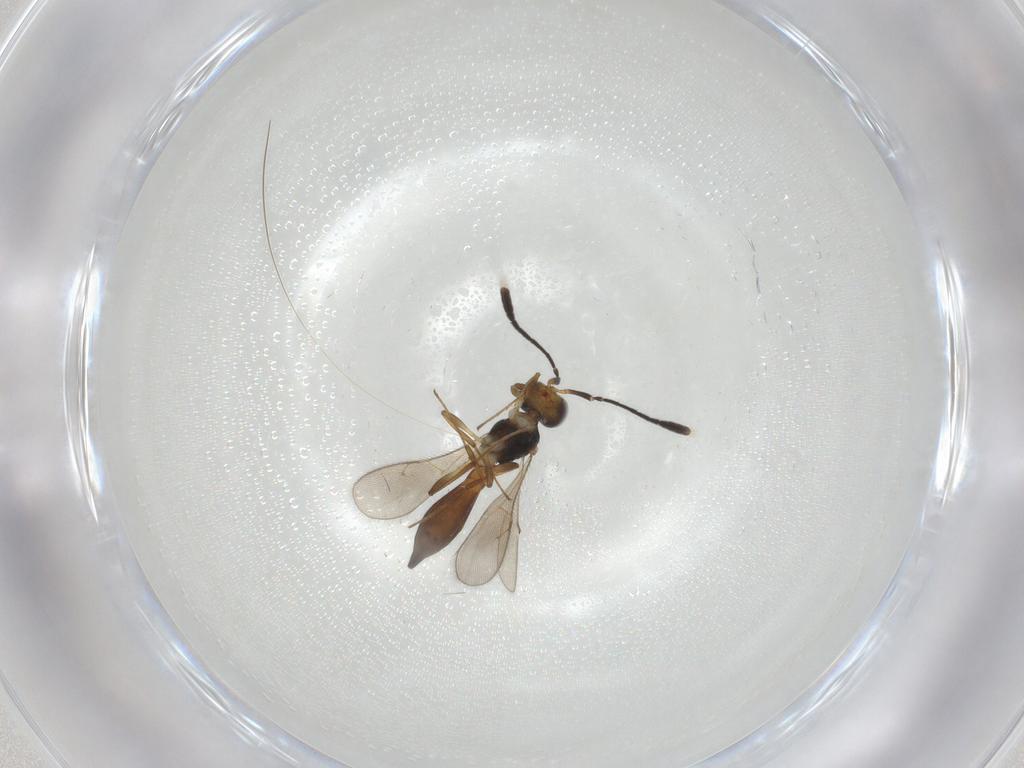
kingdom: Animalia
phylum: Arthropoda
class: Insecta
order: Hymenoptera
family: Scelionidae
